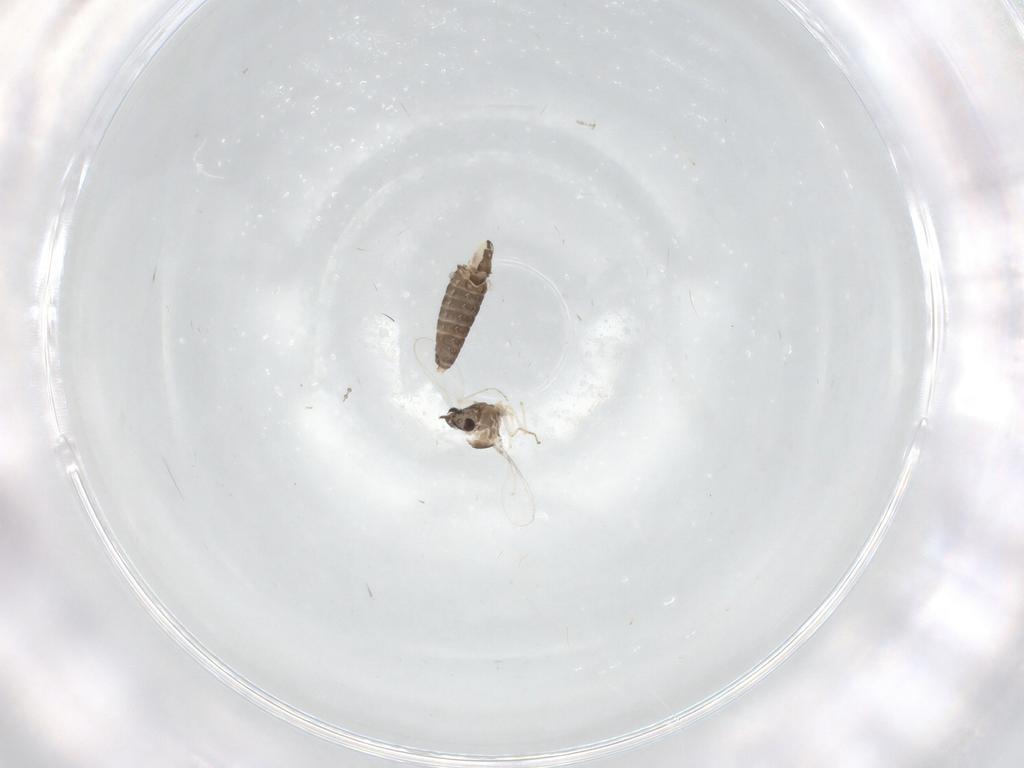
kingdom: Animalia
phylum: Arthropoda
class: Insecta
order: Diptera
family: Chironomidae
